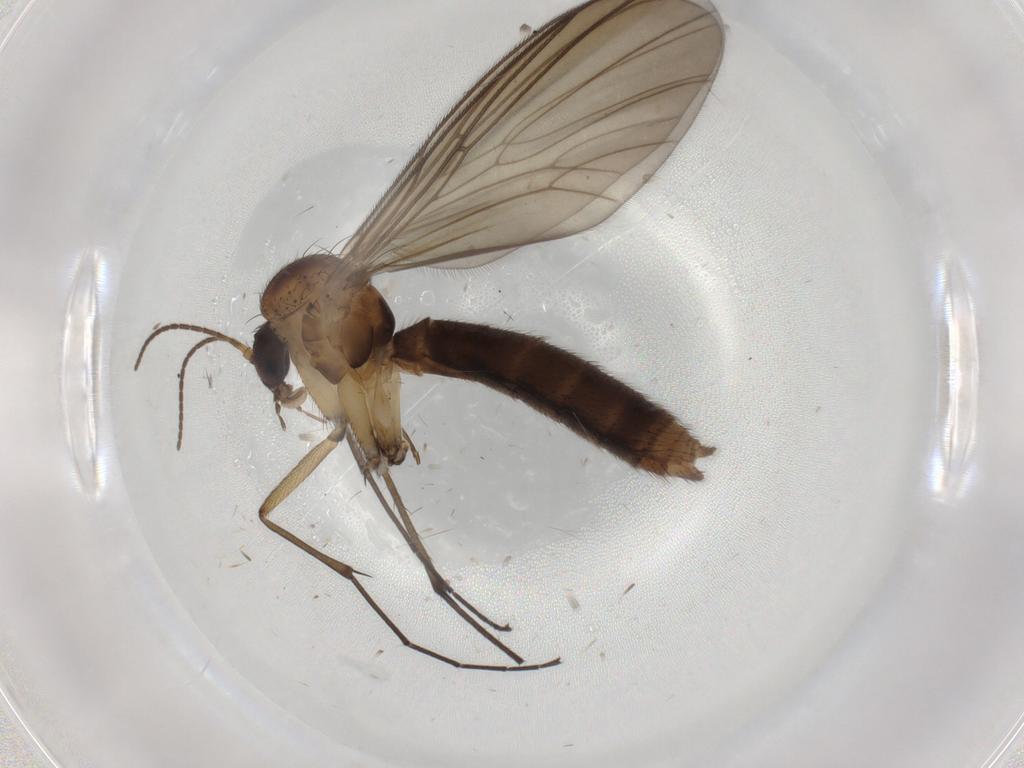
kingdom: Animalia
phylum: Arthropoda
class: Insecta
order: Diptera
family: Sciaridae
